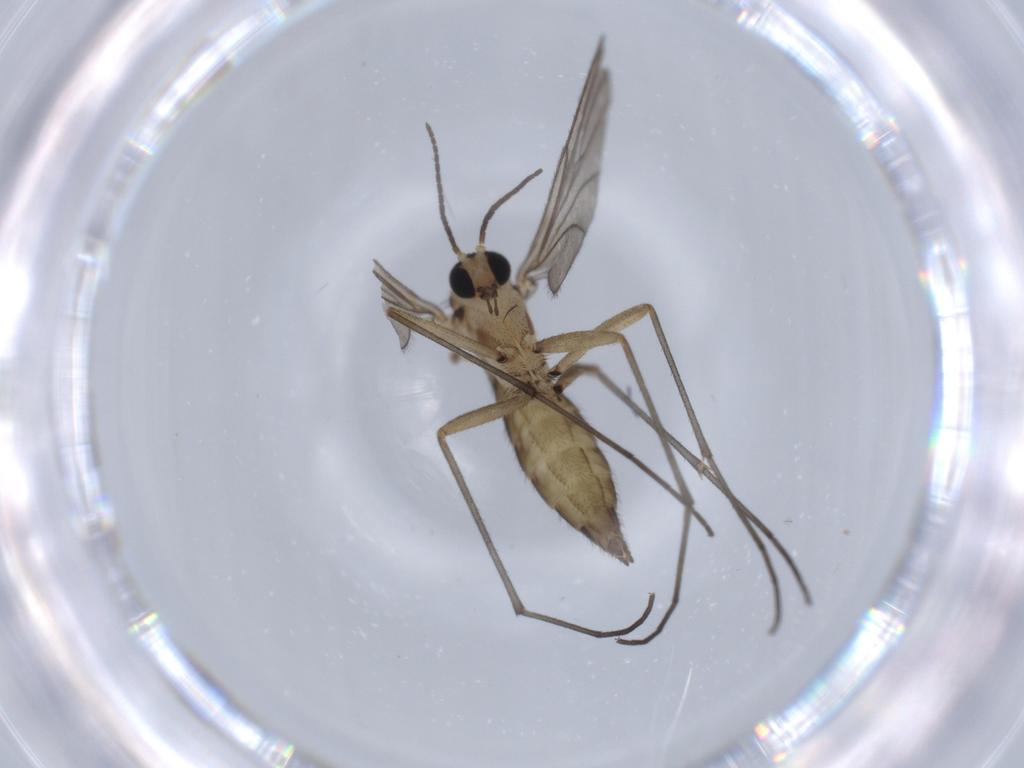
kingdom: Animalia
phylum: Arthropoda
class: Insecta
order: Diptera
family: Sciaridae
